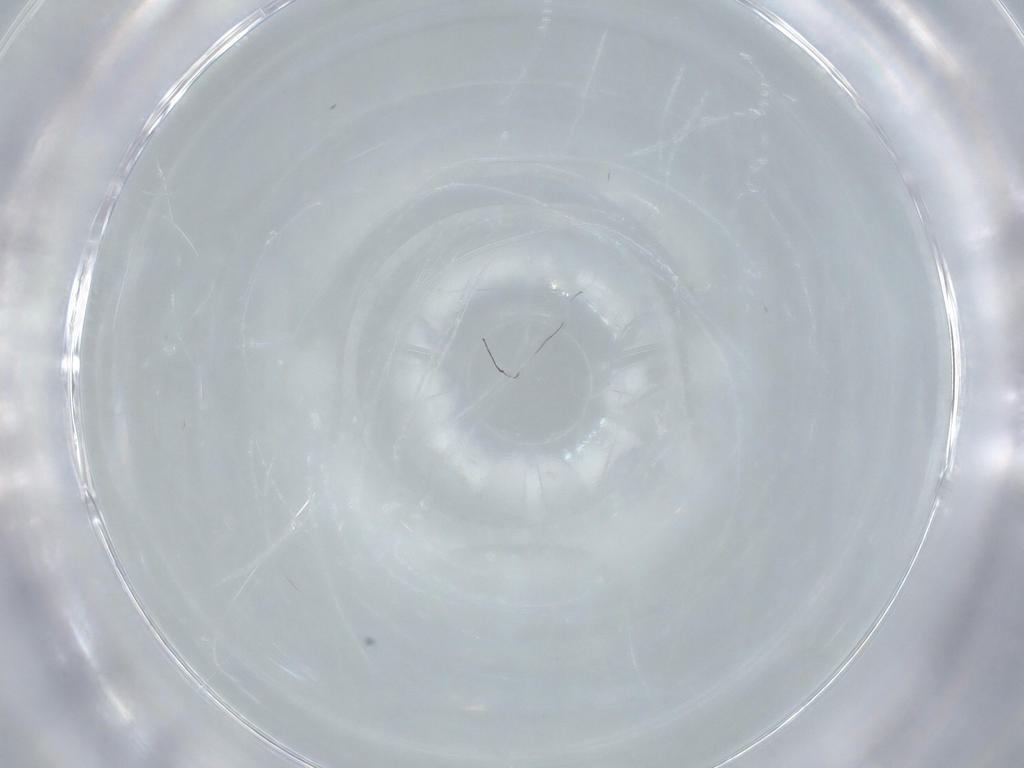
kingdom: Animalia
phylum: Arthropoda
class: Insecta
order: Diptera
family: Milichiidae
